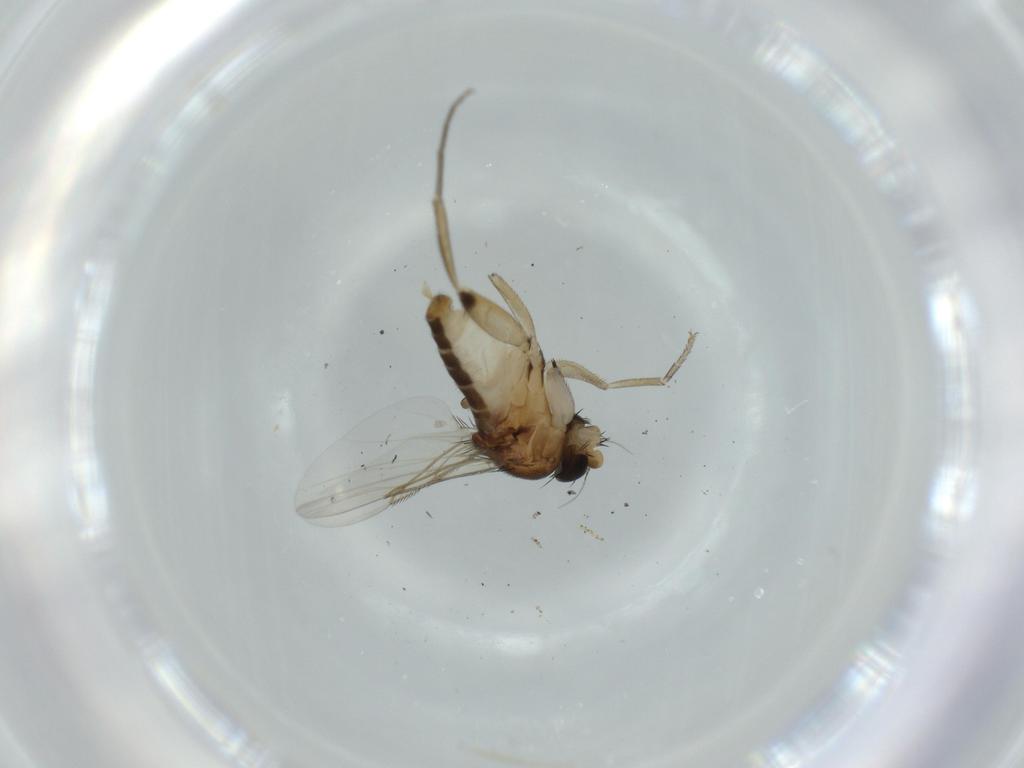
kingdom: Animalia
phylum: Arthropoda
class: Insecta
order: Diptera
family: Cecidomyiidae
